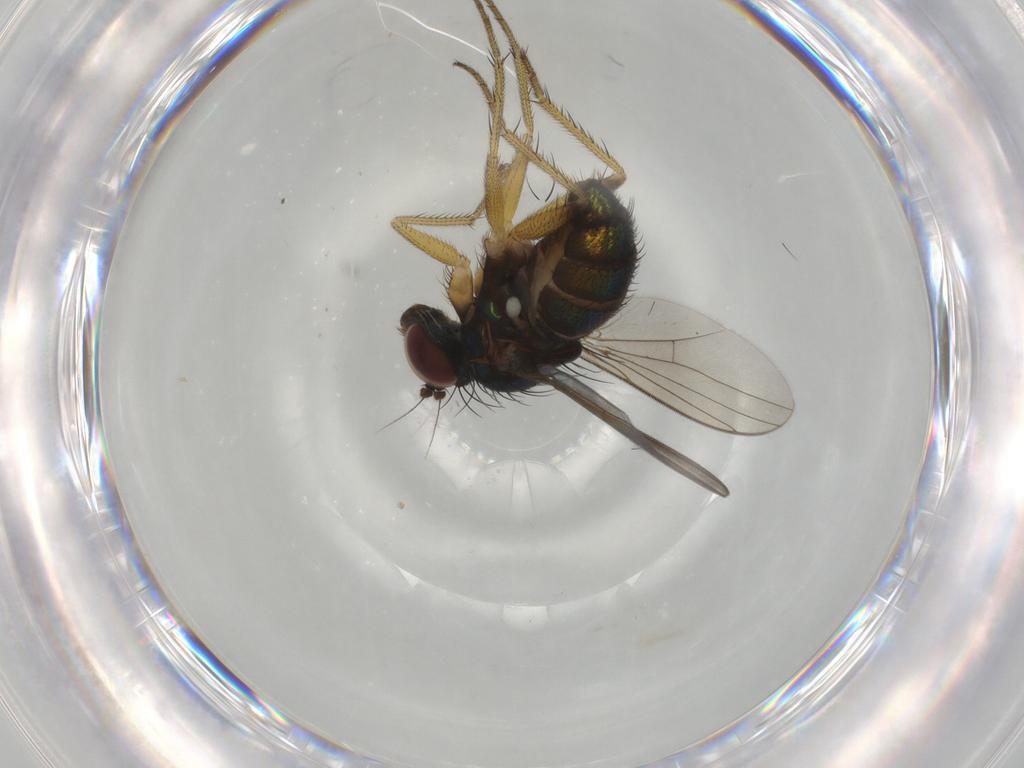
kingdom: Animalia
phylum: Arthropoda
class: Insecta
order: Diptera
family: Dolichopodidae
